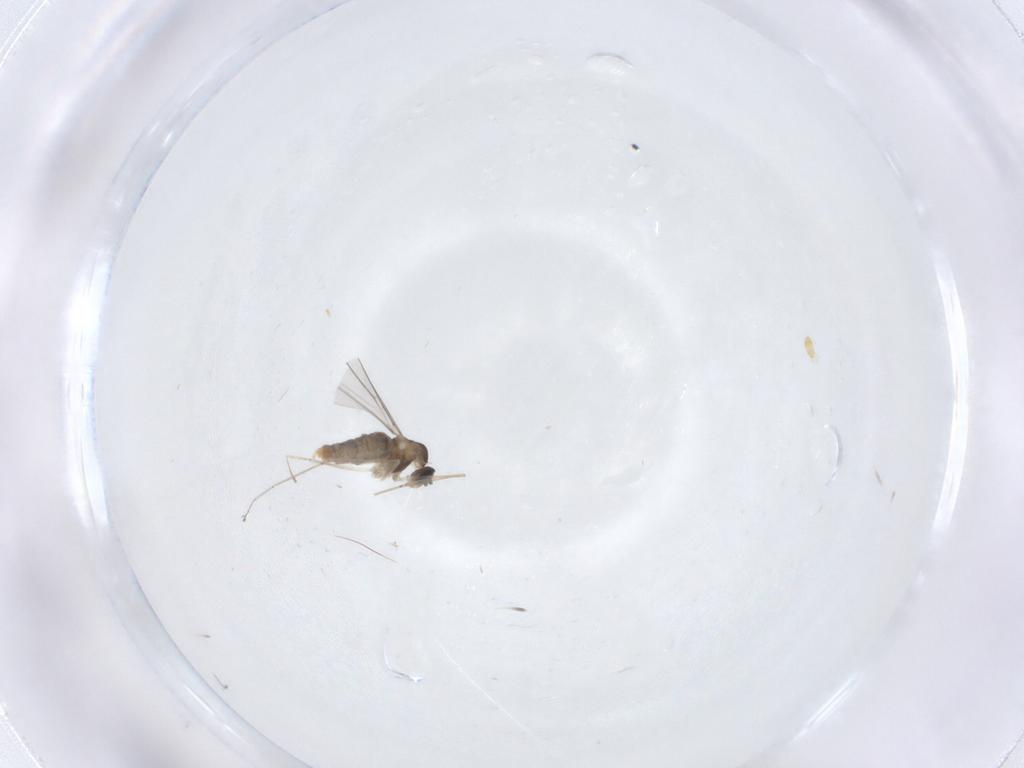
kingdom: Animalia
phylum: Arthropoda
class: Insecta
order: Diptera
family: Cecidomyiidae
